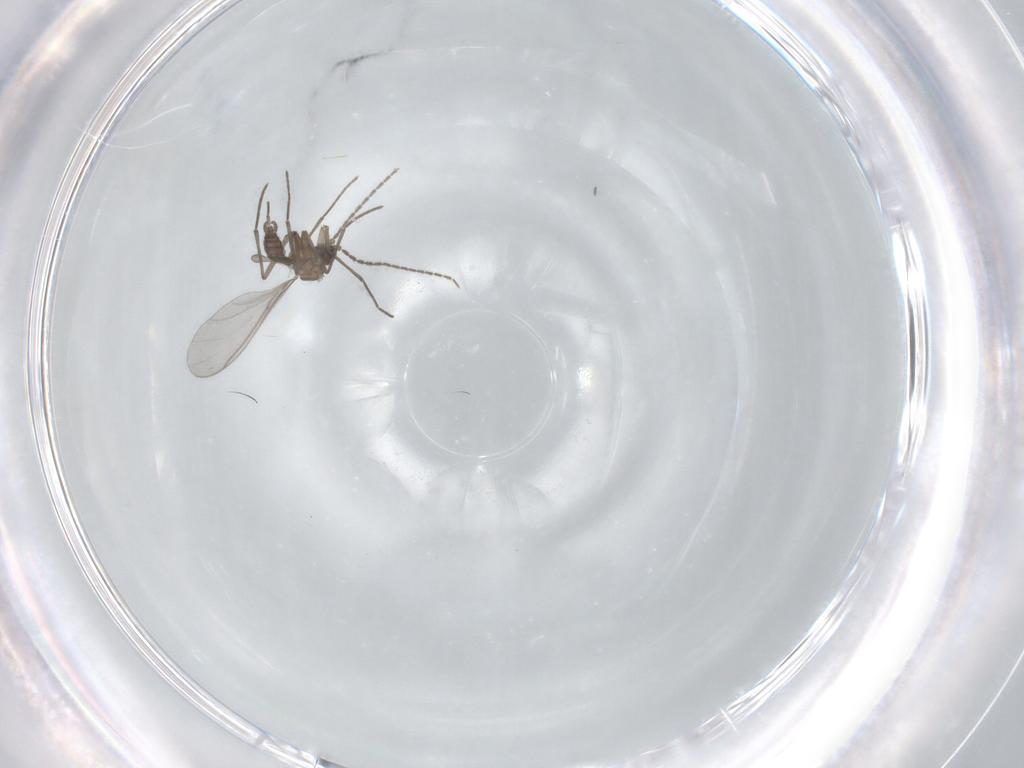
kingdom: Animalia
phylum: Arthropoda
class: Insecta
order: Diptera
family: Sciaridae
